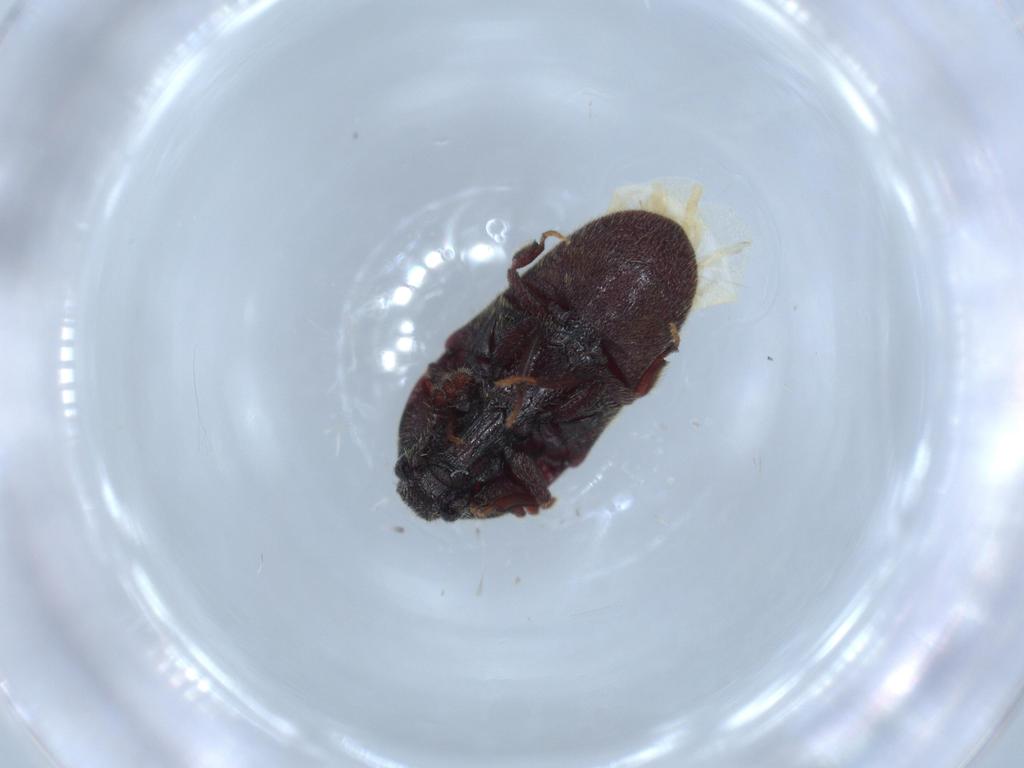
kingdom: Animalia
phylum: Arthropoda
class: Insecta
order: Coleoptera
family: Throscidae
